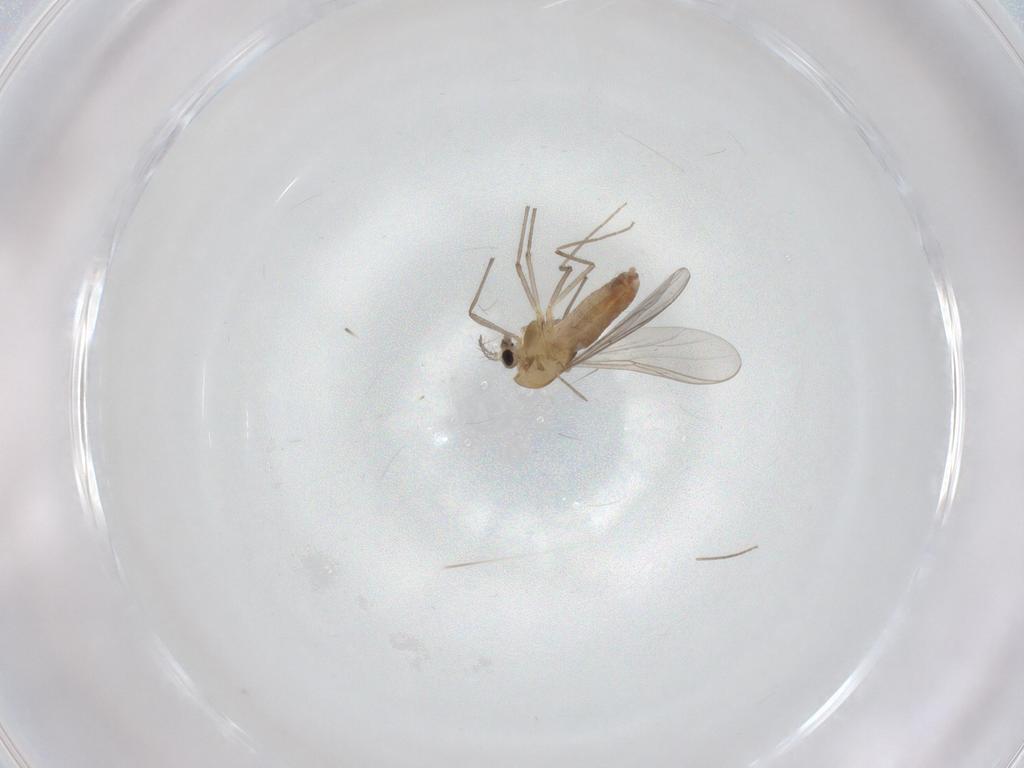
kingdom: Animalia
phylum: Arthropoda
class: Insecta
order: Diptera
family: Chironomidae
